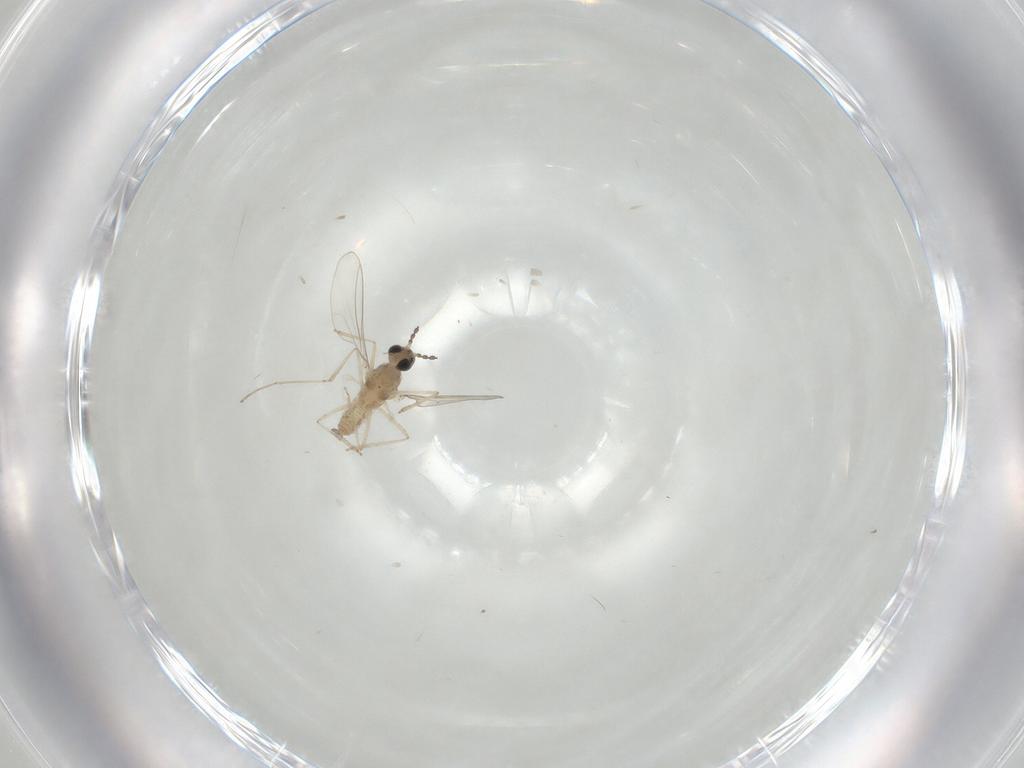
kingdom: Animalia
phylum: Arthropoda
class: Insecta
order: Diptera
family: Cecidomyiidae
